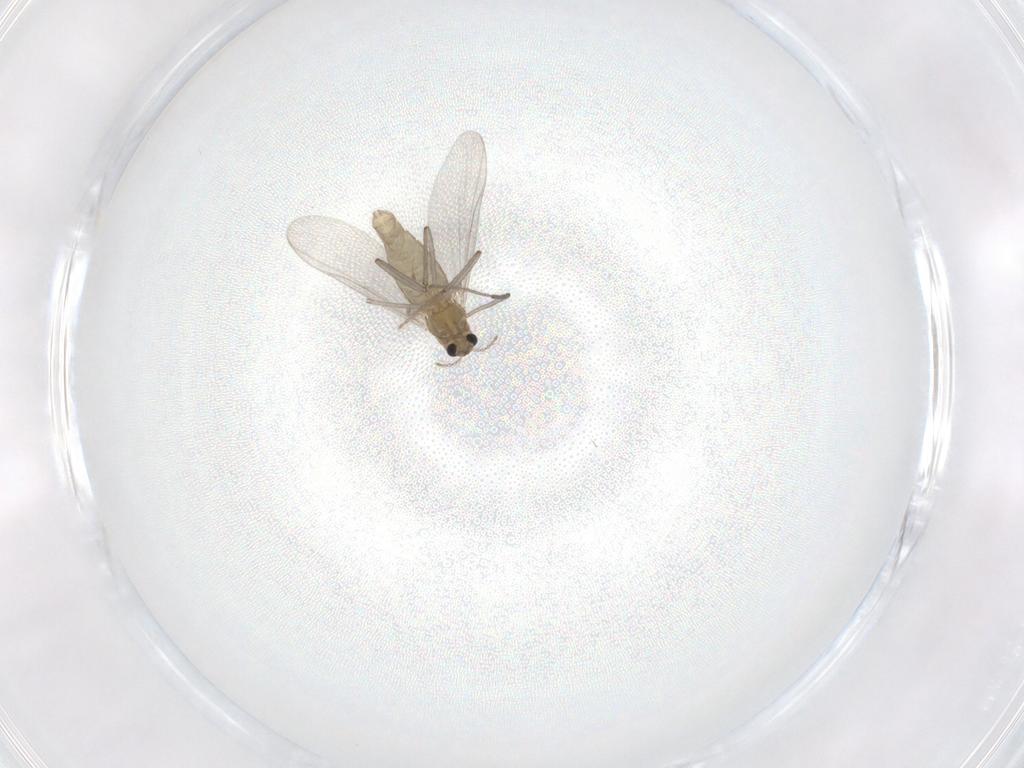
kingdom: Animalia
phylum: Arthropoda
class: Insecta
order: Diptera
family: Chironomidae
